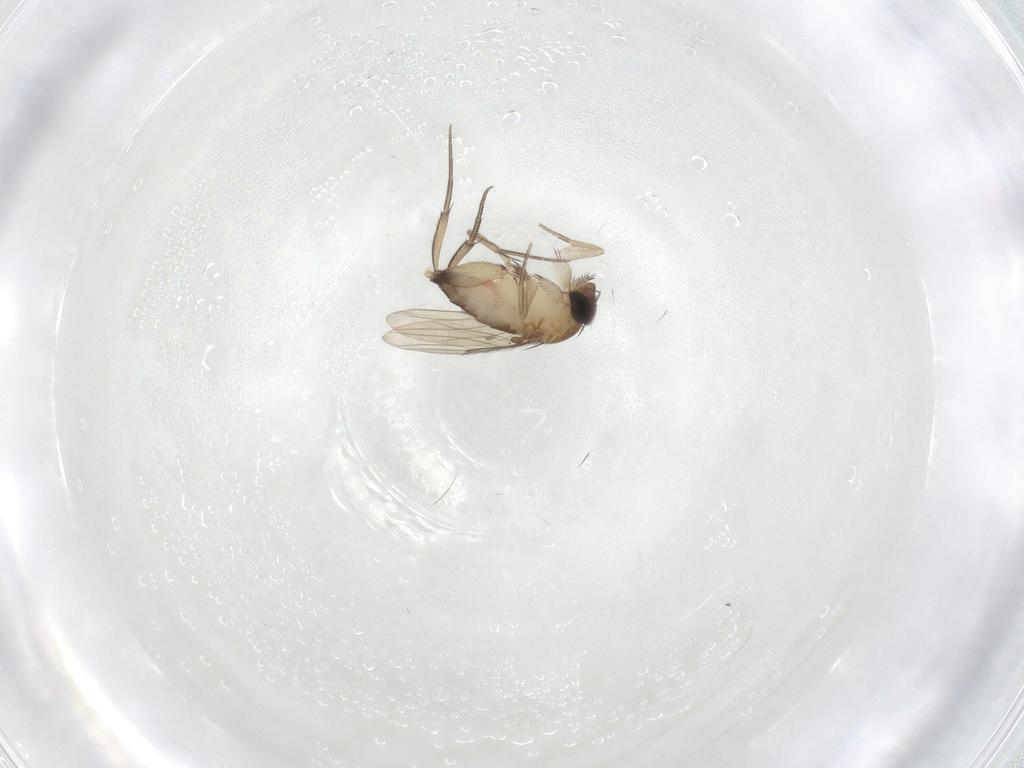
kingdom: Animalia
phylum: Arthropoda
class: Insecta
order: Diptera
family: Phoridae
